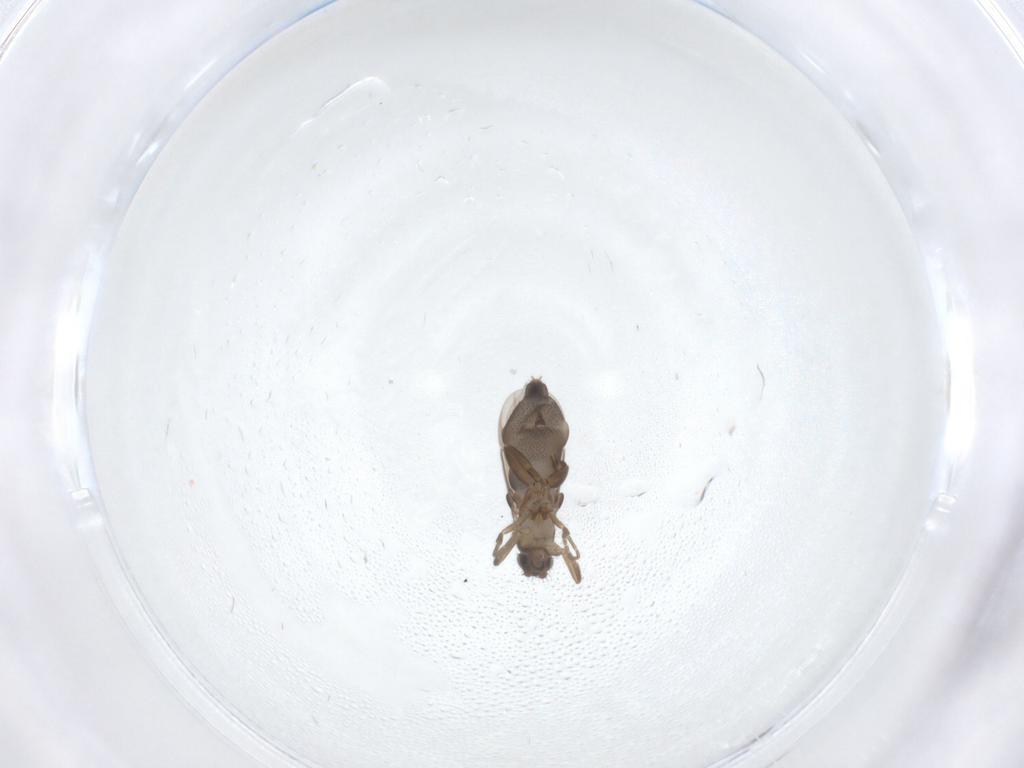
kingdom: Animalia
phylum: Arthropoda
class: Insecta
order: Diptera
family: Phoridae
